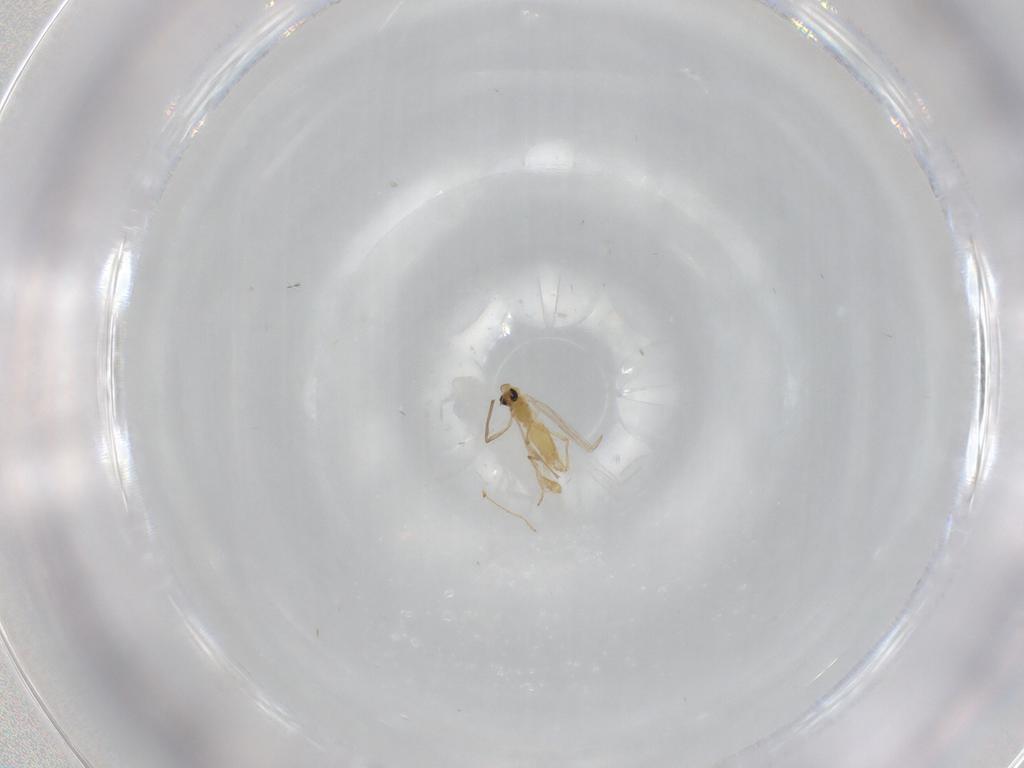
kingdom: Animalia
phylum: Arthropoda
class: Insecta
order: Diptera
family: Chironomidae
